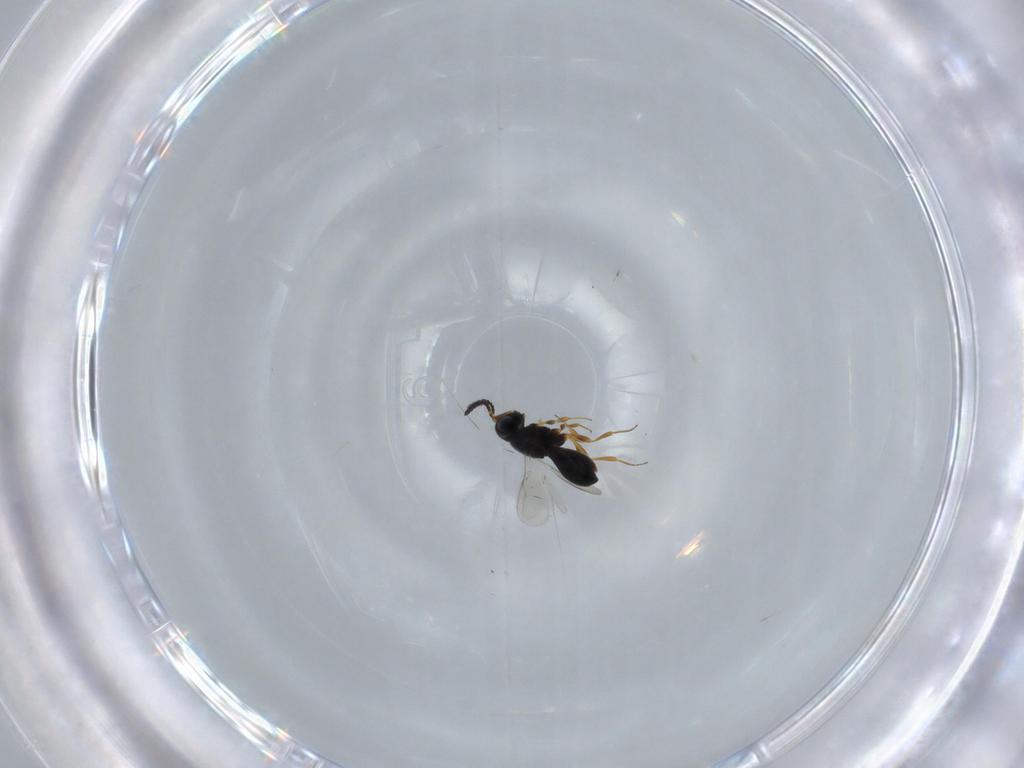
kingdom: Animalia
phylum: Arthropoda
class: Insecta
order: Hymenoptera
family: Scelionidae
